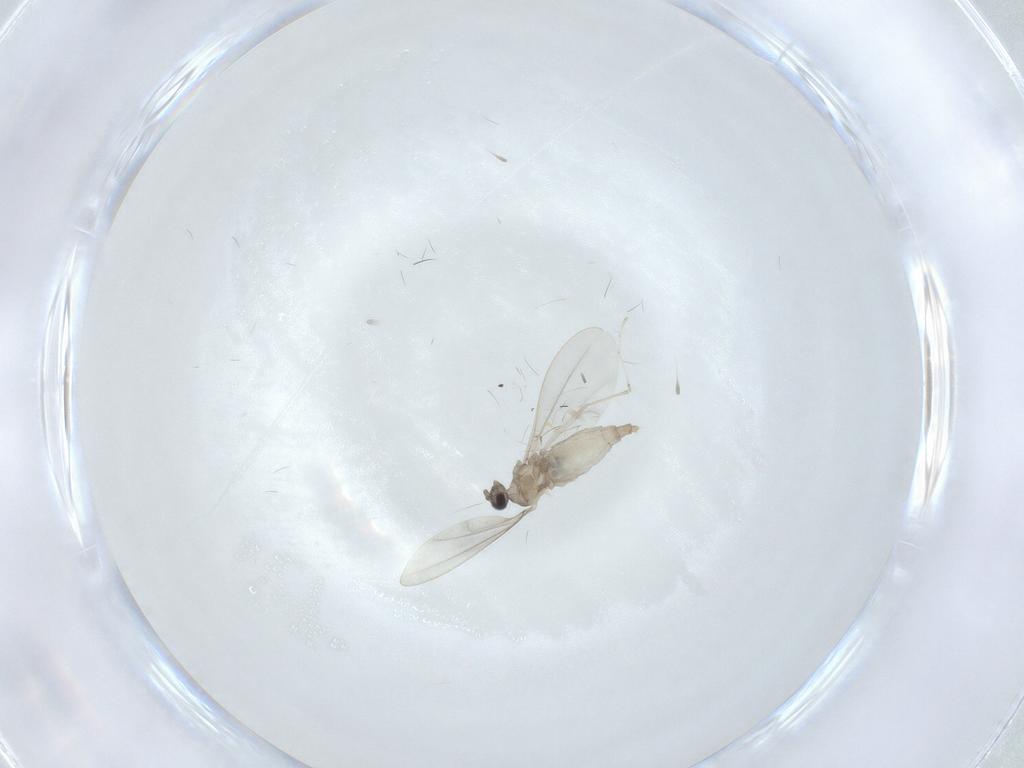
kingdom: Animalia
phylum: Arthropoda
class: Insecta
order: Diptera
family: Cecidomyiidae
